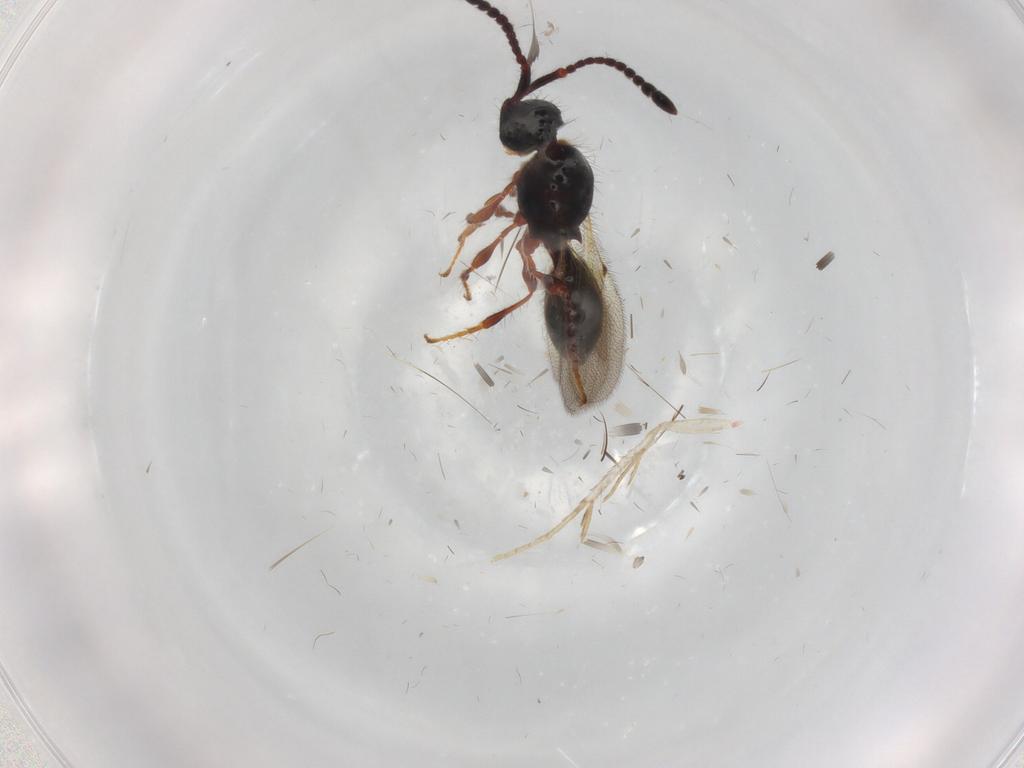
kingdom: Animalia
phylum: Arthropoda
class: Insecta
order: Hymenoptera
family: Diapriidae
